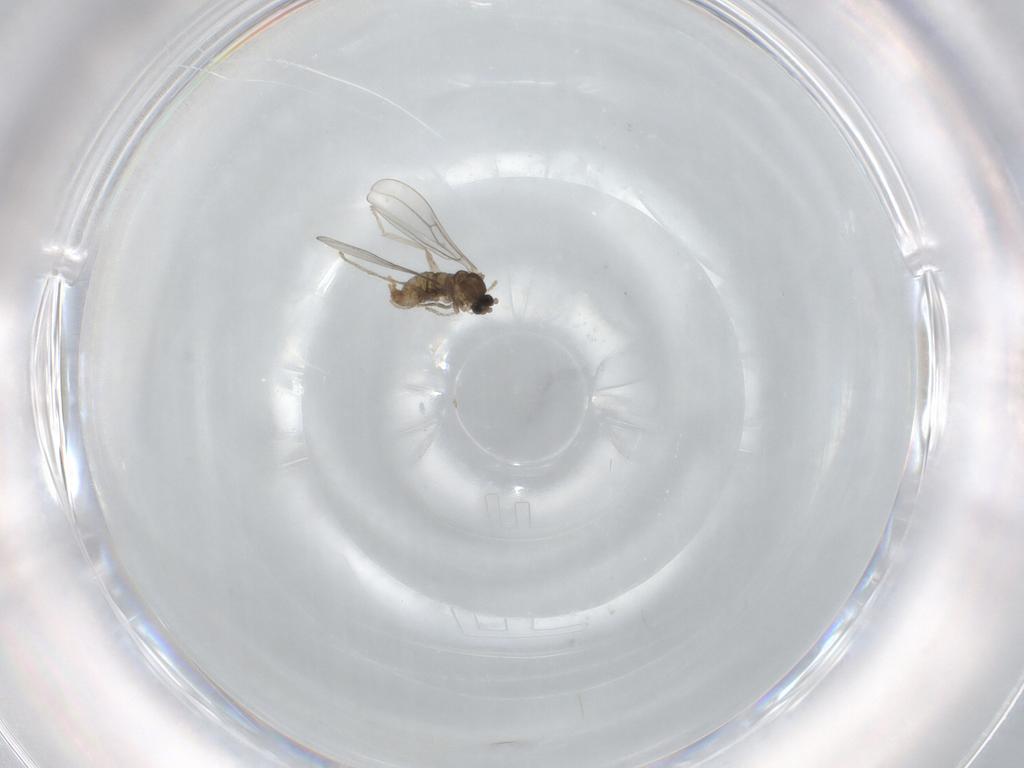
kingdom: Animalia
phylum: Arthropoda
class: Insecta
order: Diptera
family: Cecidomyiidae
